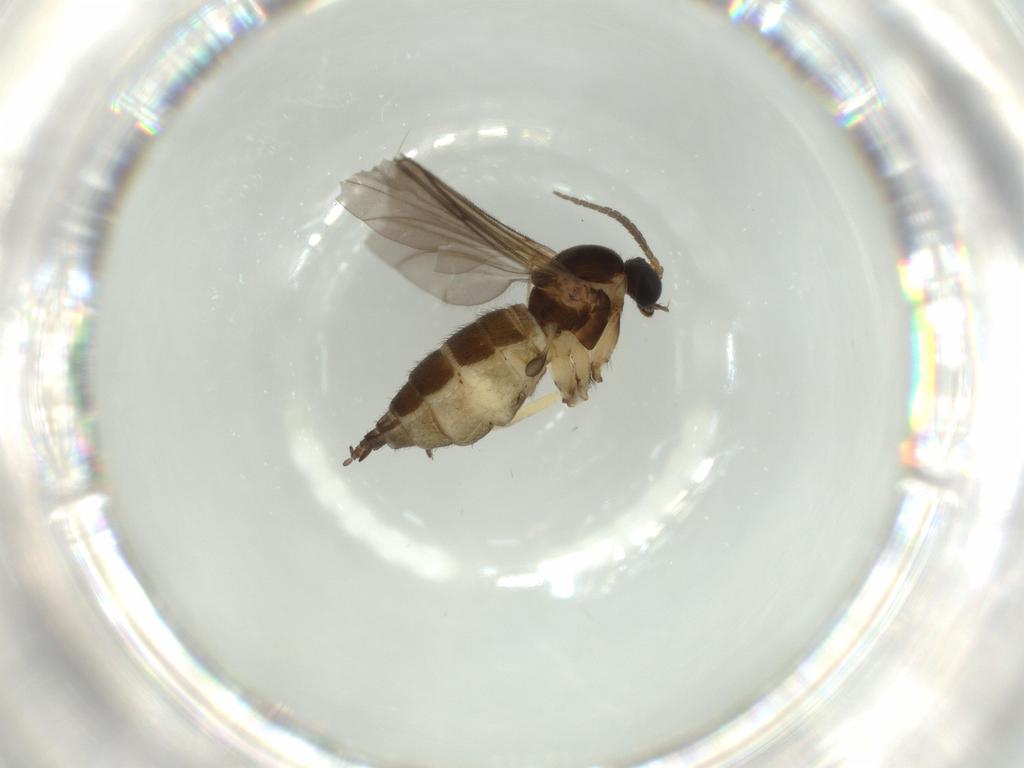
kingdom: Animalia
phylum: Arthropoda
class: Insecta
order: Diptera
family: Sciaridae
